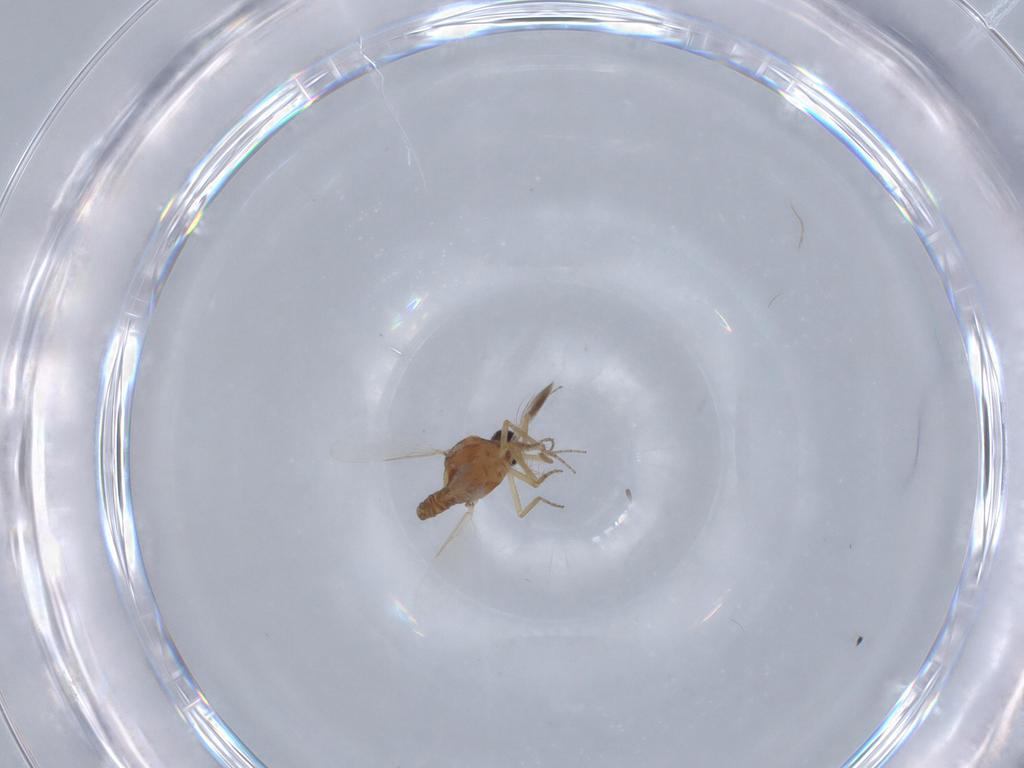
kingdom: Animalia
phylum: Arthropoda
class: Insecta
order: Diptera
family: Ceratopogonidae
